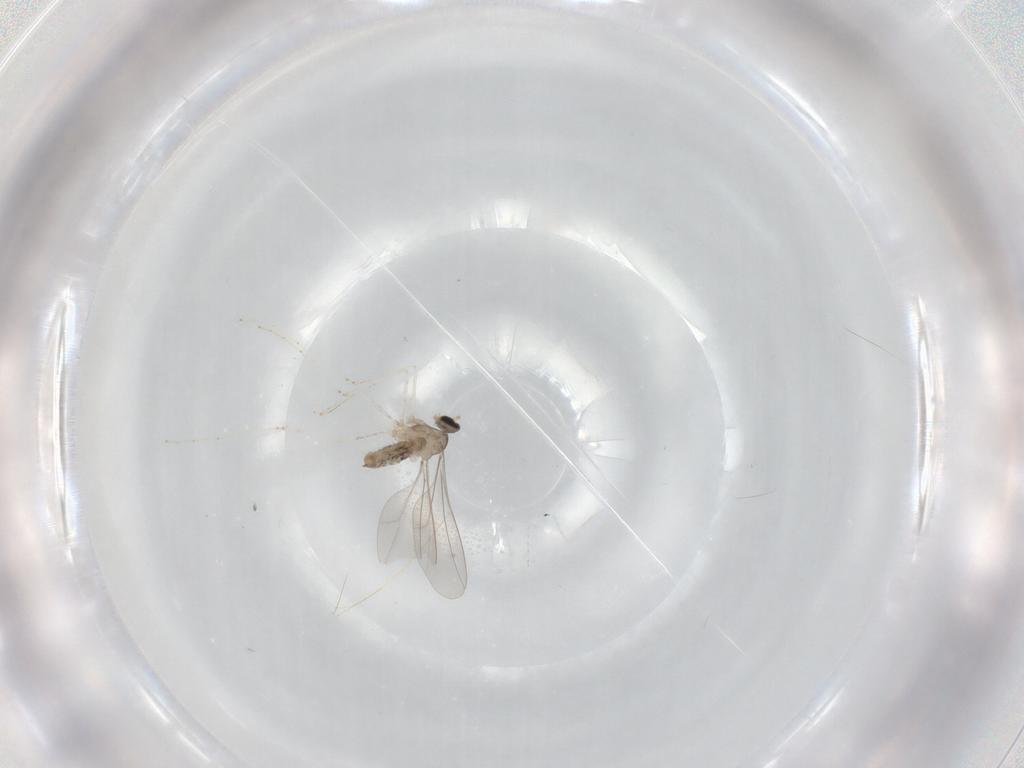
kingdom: Animalia
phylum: Arthropoda
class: Insecta
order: Diptera
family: Cecidomyiidae
